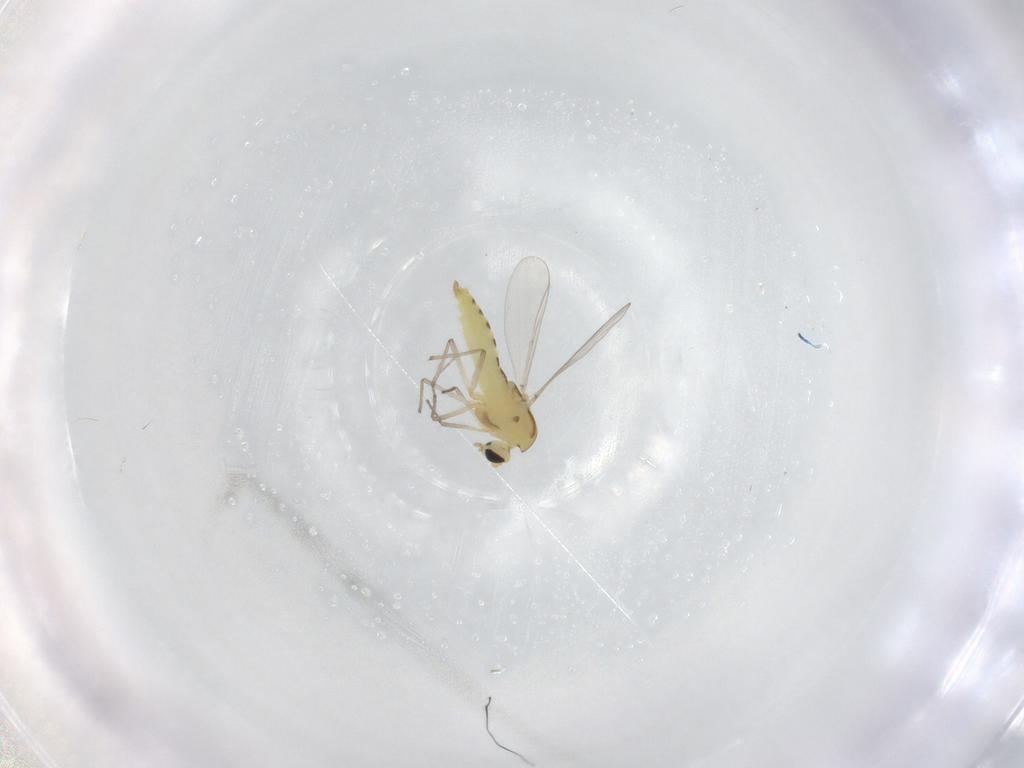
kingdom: Animalia
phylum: Arthropoda
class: Insecta
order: Diptera
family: Chironomidae
